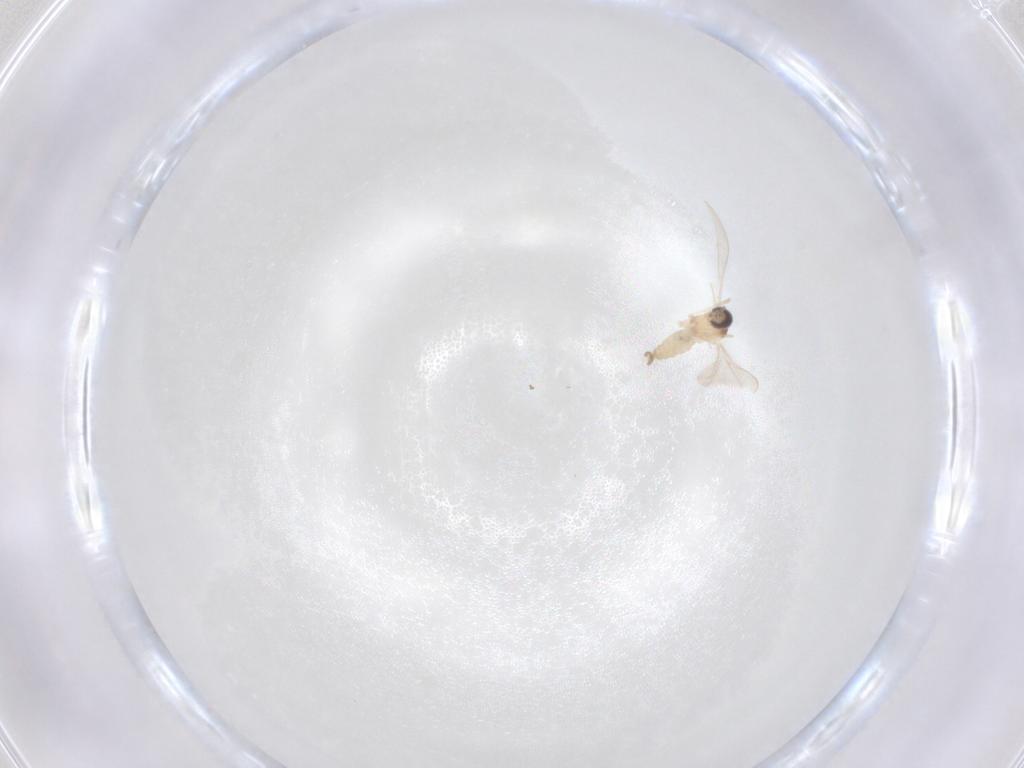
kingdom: Animalia
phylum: Arthropoda
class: Insecta
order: Diptera
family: Cecidomyiidae
